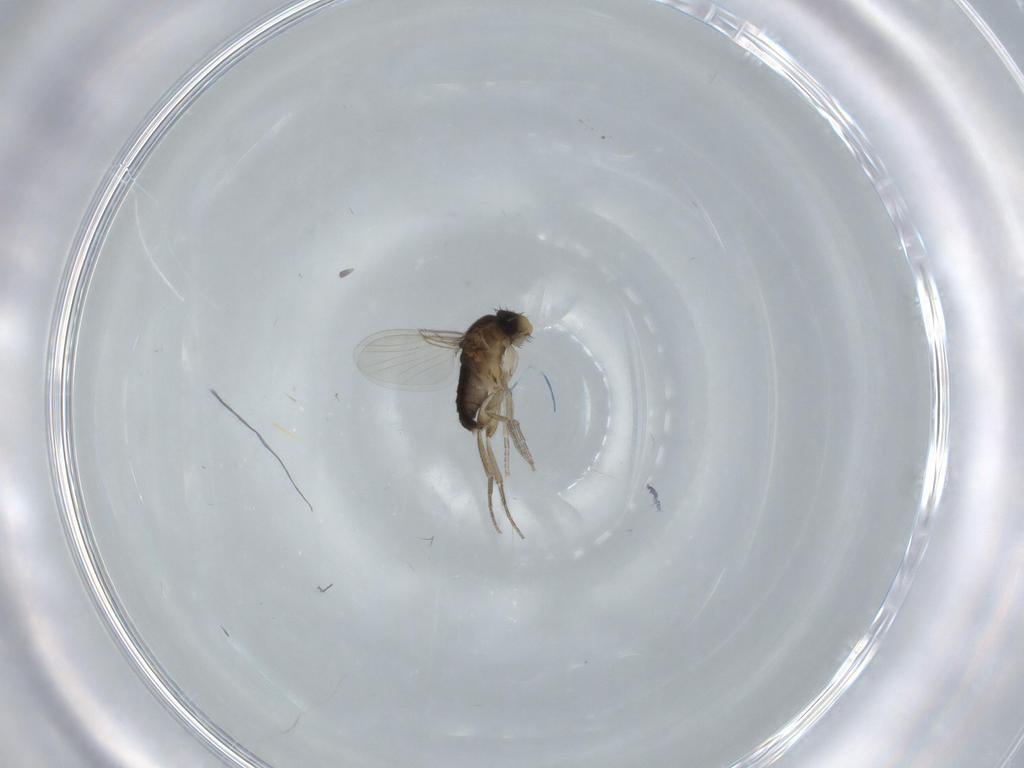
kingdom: Animalia
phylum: Arthropoda
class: Insecta
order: Diptera
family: Phoridae
